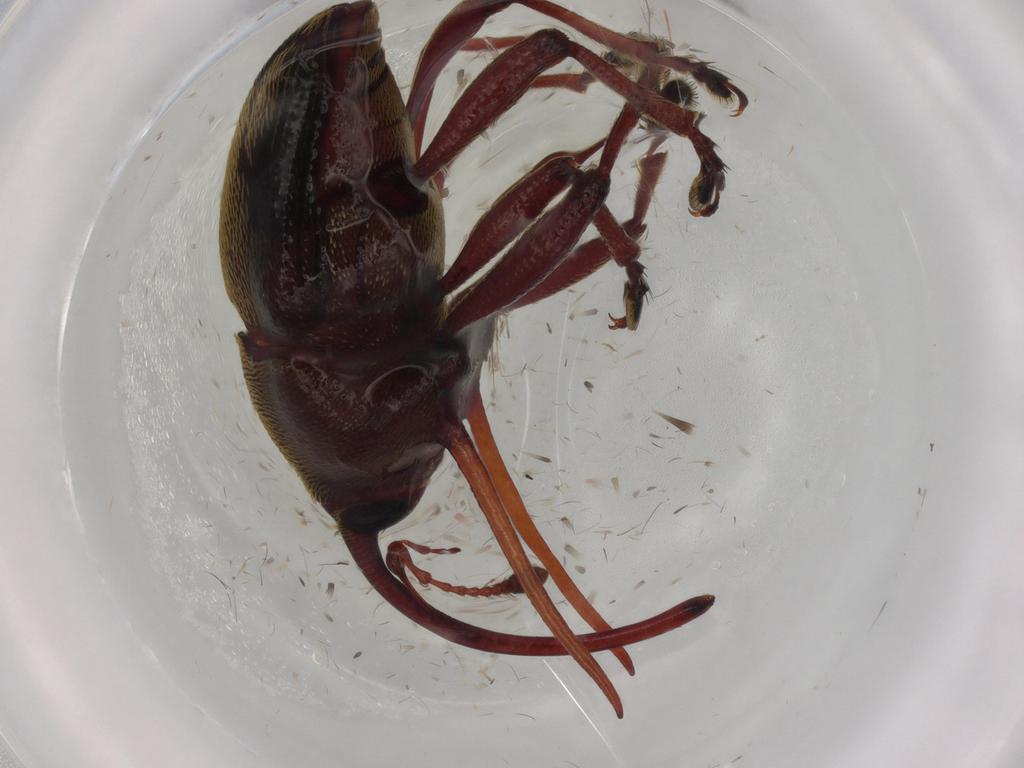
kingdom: Animalia
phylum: Arthropoda
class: Insecta
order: Coleoptera
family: Curculionidae
